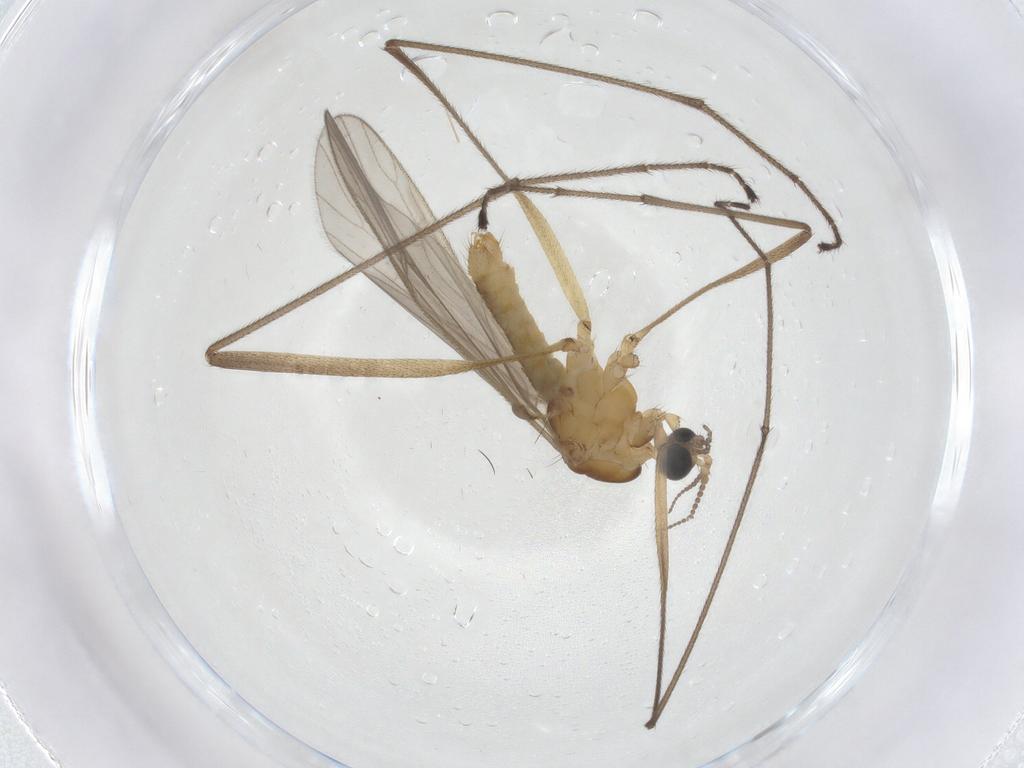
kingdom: Animalia
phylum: Arthropoda
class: Insecta
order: Diptera
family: Limoniidae
